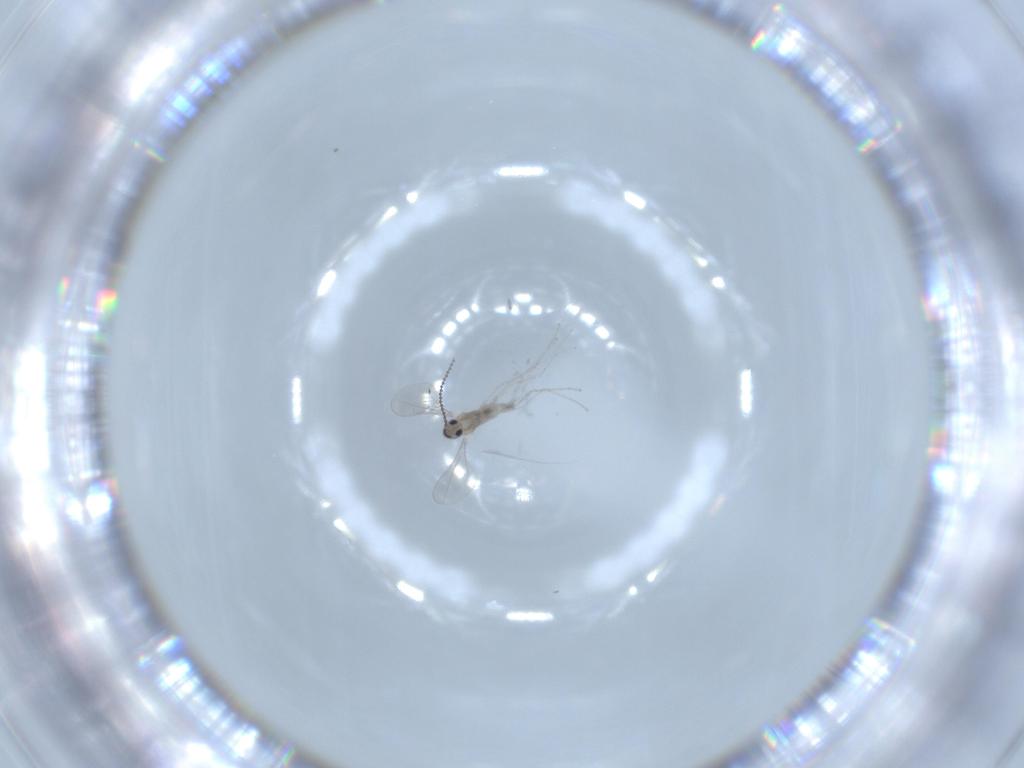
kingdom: Animalia
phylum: Arthropoda
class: Insecta
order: Diptera
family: Cecidomyiidae
